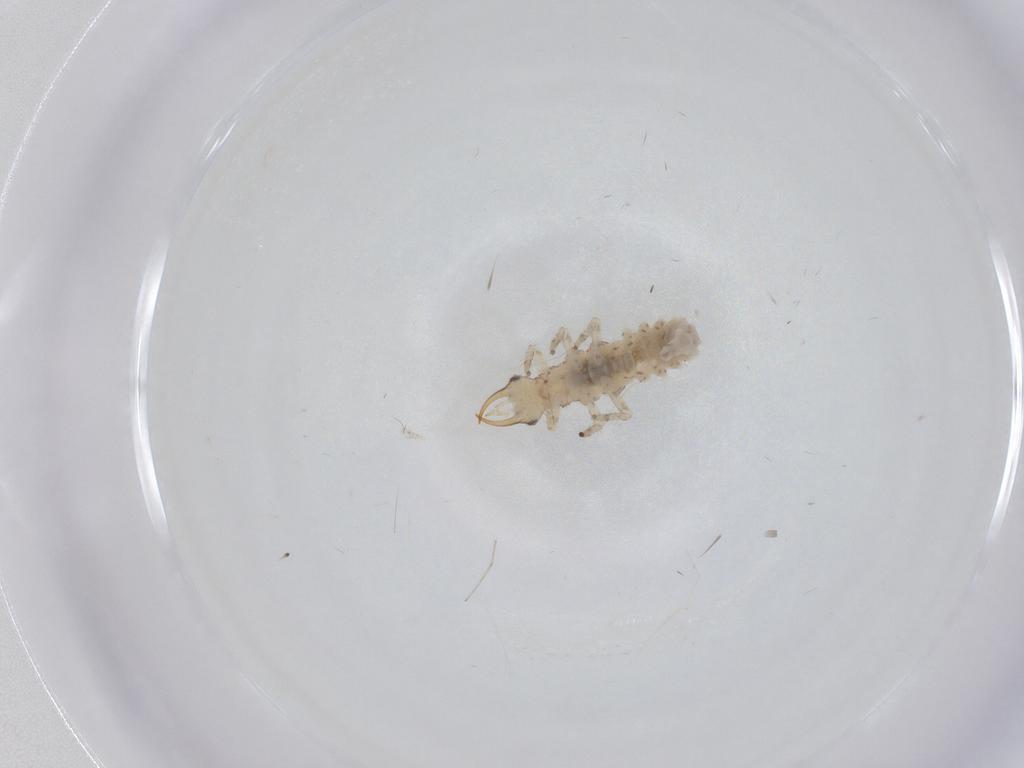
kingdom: Animalia
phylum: Arthropoda
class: Insecta
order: Neuroptera
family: Chrysopidae
